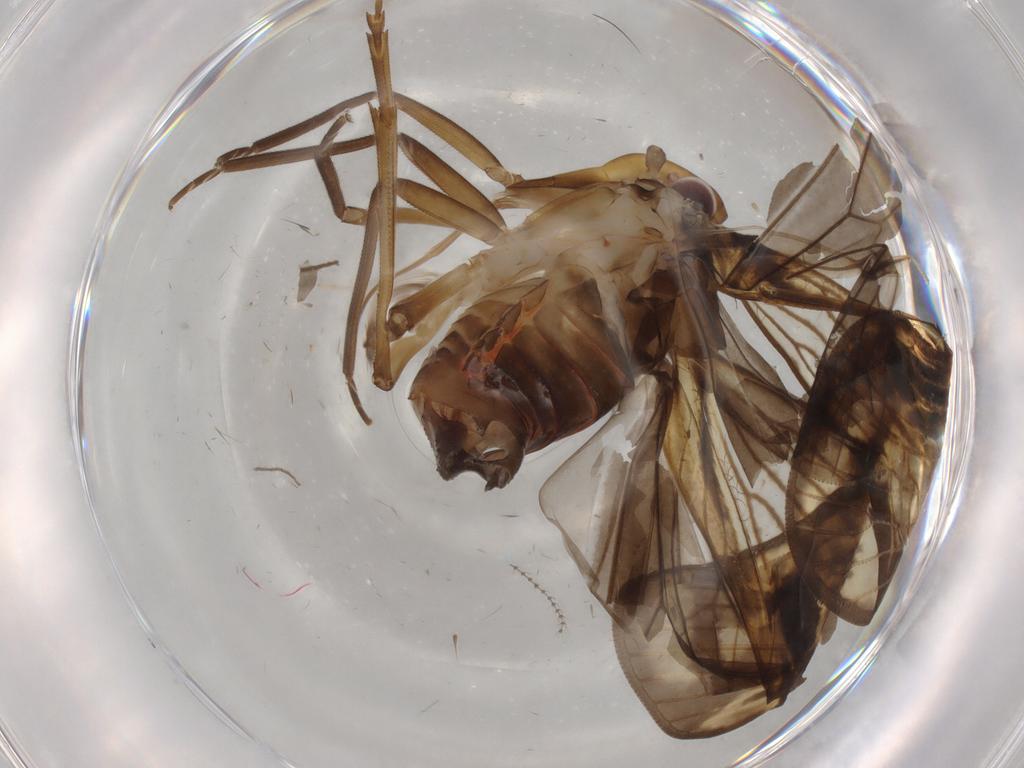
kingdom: Animalia
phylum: Arthropoda
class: Insecta
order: Hemiptera
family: Cixiidae
